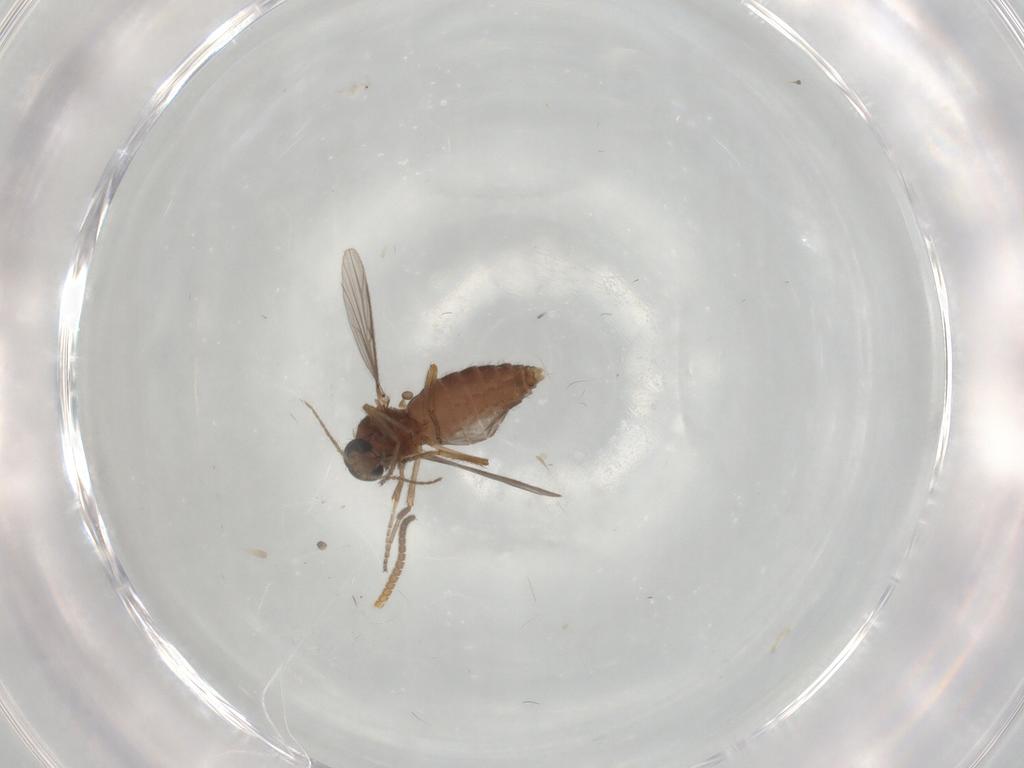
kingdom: Animalia
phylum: Arthropoda
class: Insecta
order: Diptera
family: Cecidomyiidae
